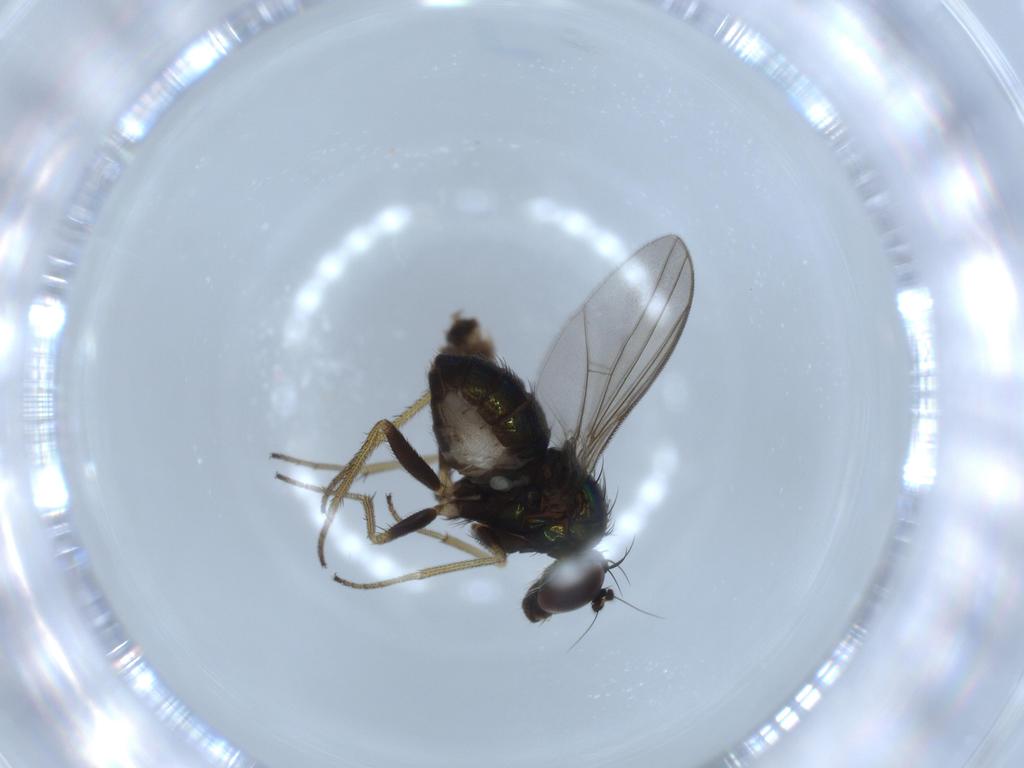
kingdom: Animalia
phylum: Arthropoda
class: Insecta
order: Diptera
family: Chironomidae
